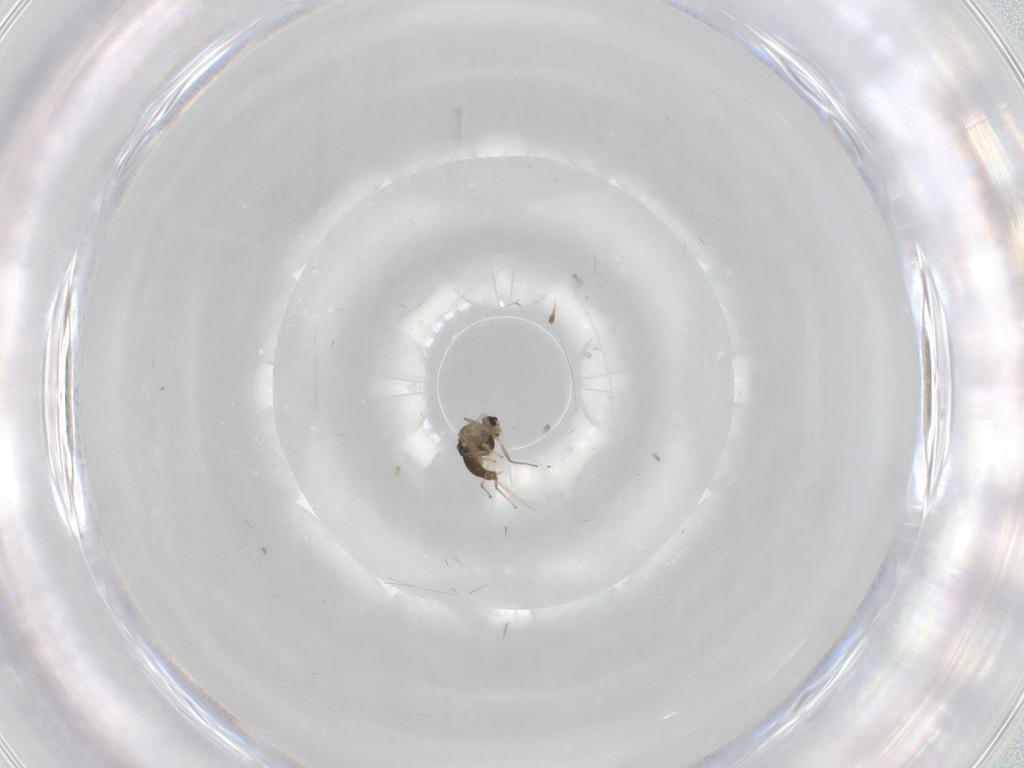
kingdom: Animalia
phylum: Arthropoda
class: Insecta
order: Diptera
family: Chironomidae
